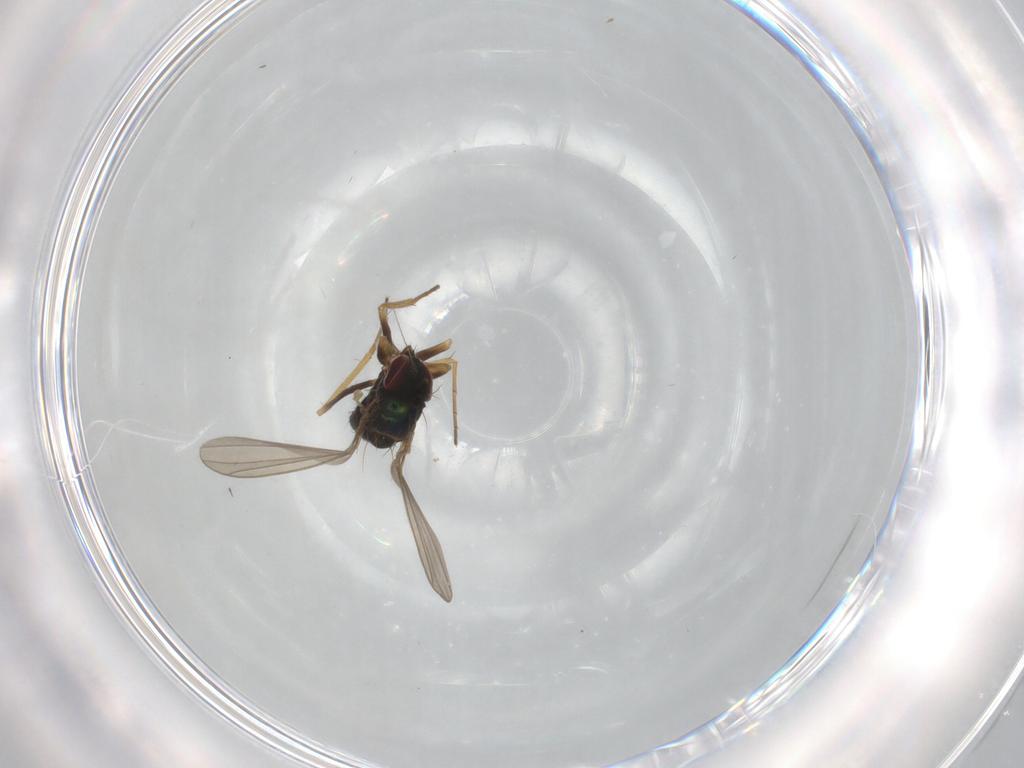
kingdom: Animalia
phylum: Arthropoda
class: Insecta
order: Diptera
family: Dolichopodidae
